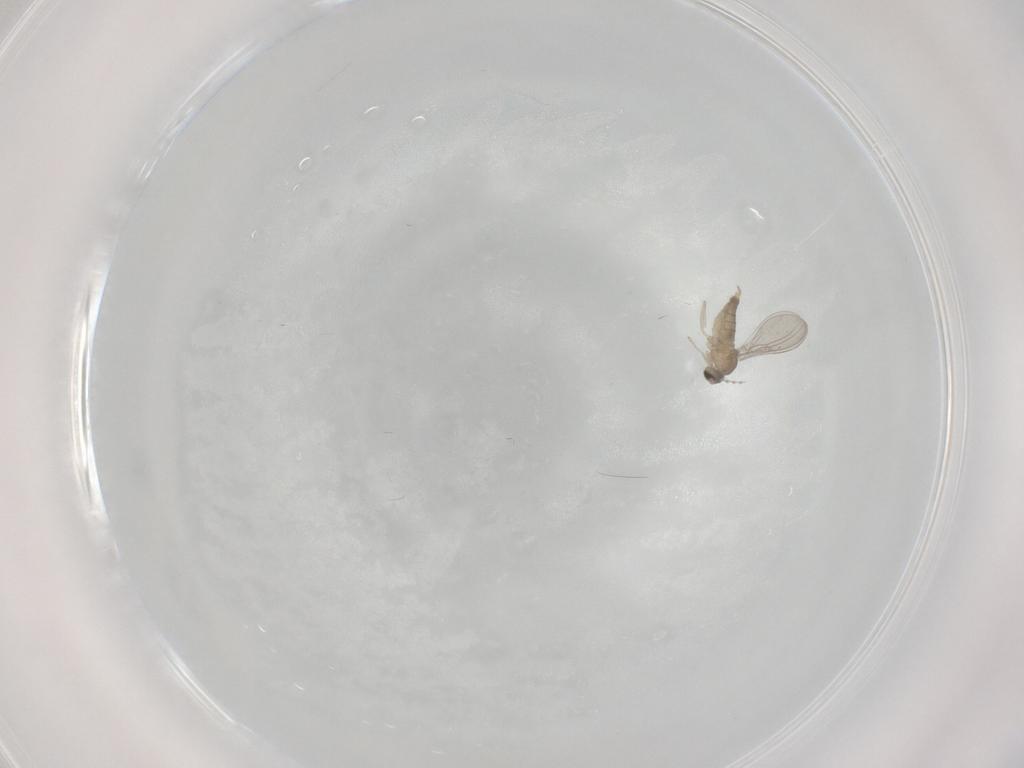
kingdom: Animalia
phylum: Arthropoda
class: Insecta
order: Diptera
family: Cecidomyiidae
